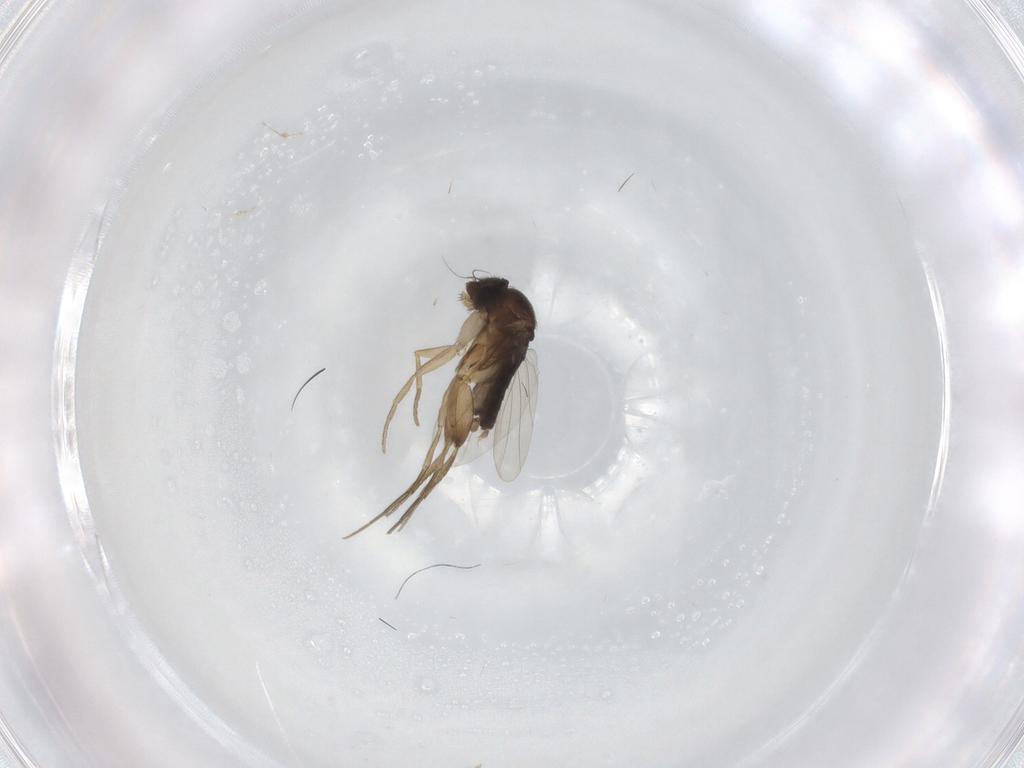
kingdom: Animalia
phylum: Arthropoda
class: Insecta
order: Diptera
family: Phoridae
